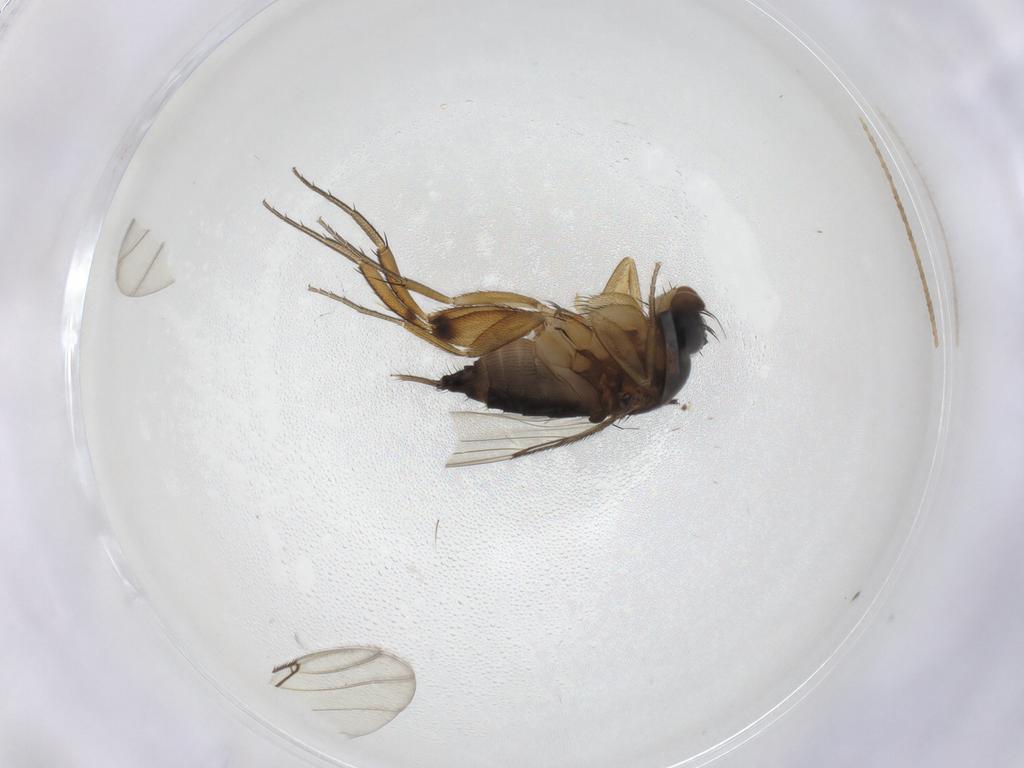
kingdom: Animalia
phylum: Arthropoda
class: Insecta
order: Diptera
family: Phoridae
